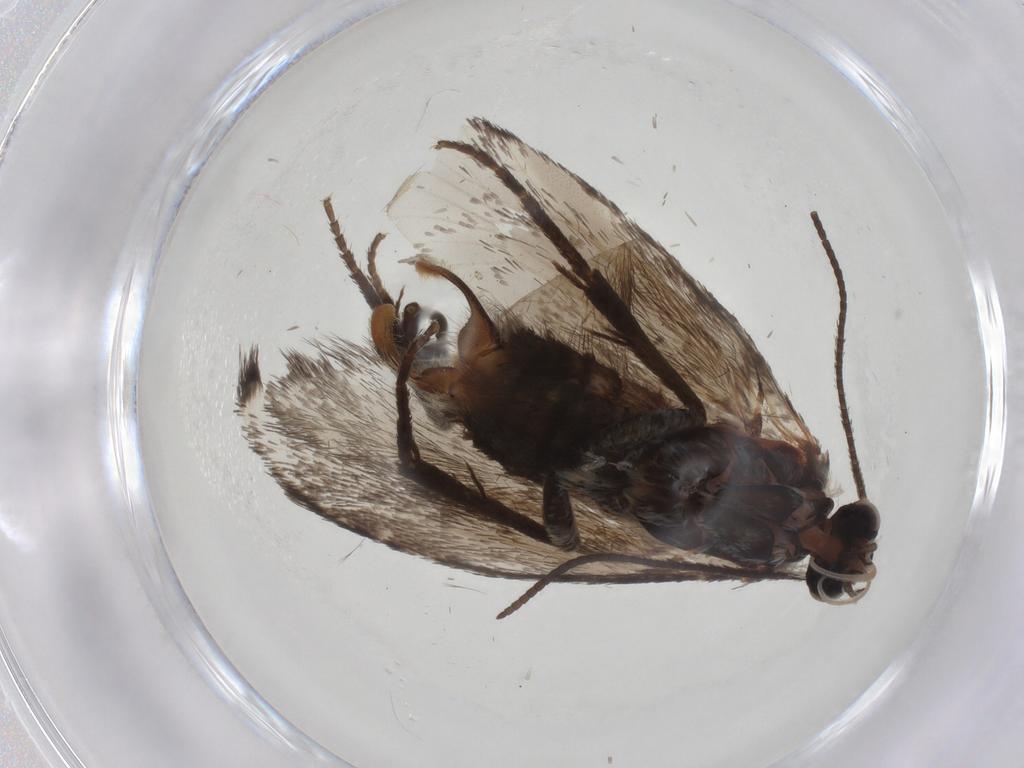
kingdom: Animalia
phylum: Arthropoda
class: Insecta
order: Lepidoptera
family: Prodoxidae
